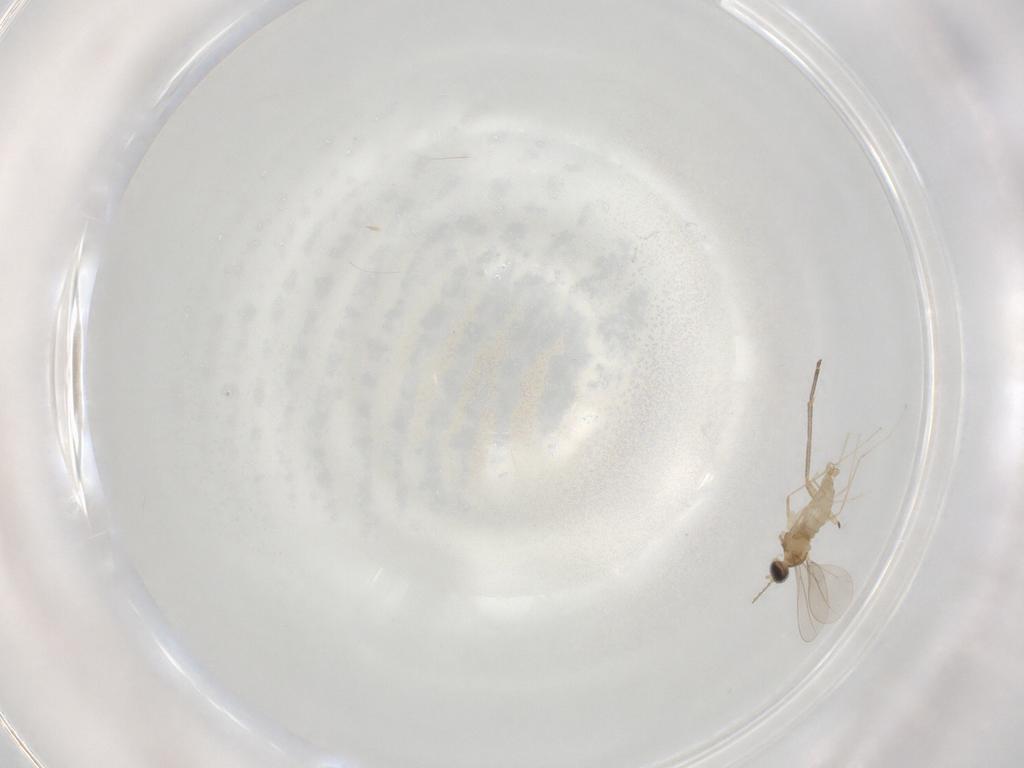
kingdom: Animalia
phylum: Arthropoda
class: Insecta
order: Diptera
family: Cecidomyiidae
